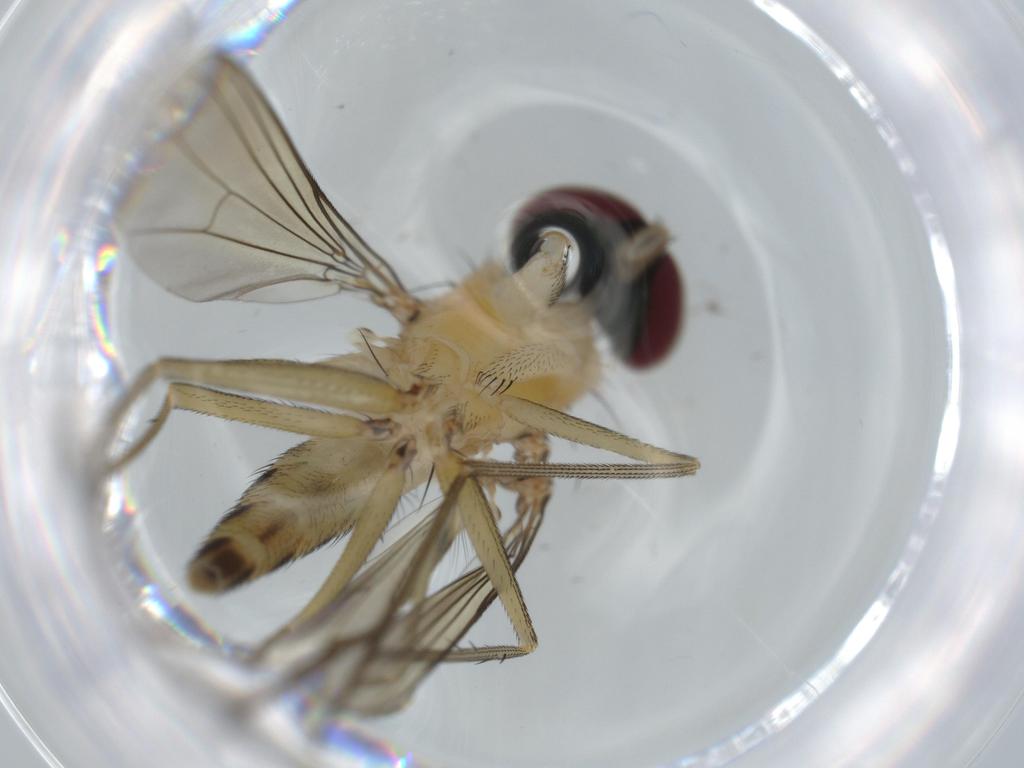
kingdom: Animalia
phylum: Arthropoda
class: Insecta
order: Diptera
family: Dolichopodidae
